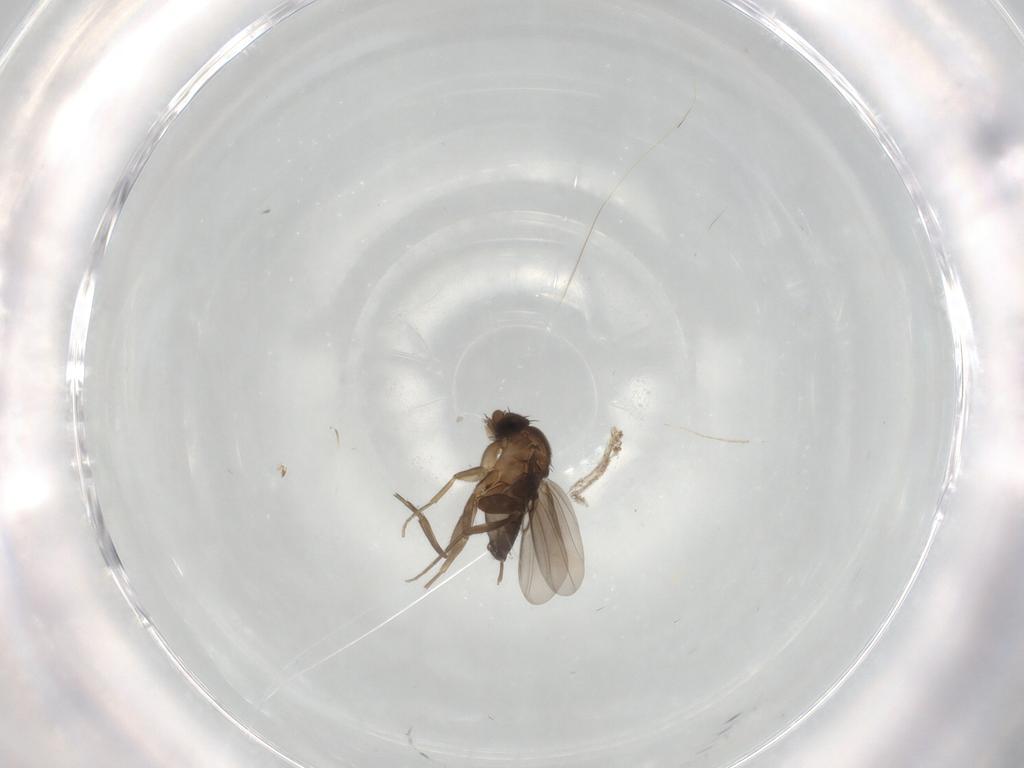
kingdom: Animalia
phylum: Arthropoda
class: Insecta
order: Diptera
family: Phoridae
